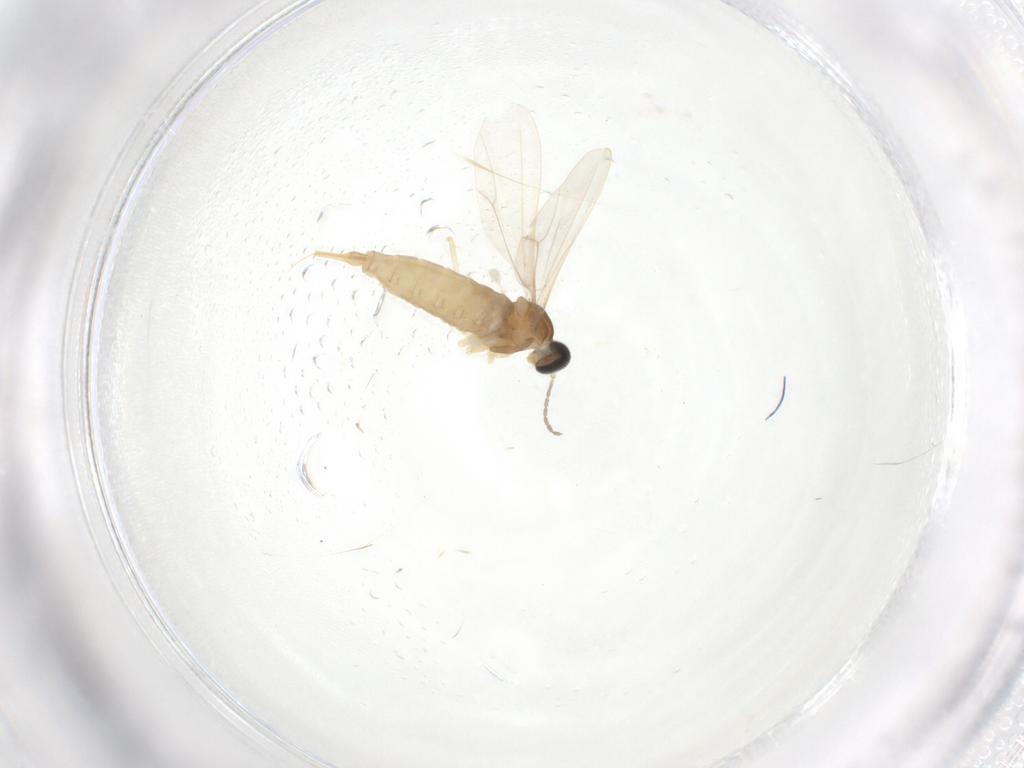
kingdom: Animalia
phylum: Arthropoda
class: Insecta
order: Diptera
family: Cecidomyiidae
